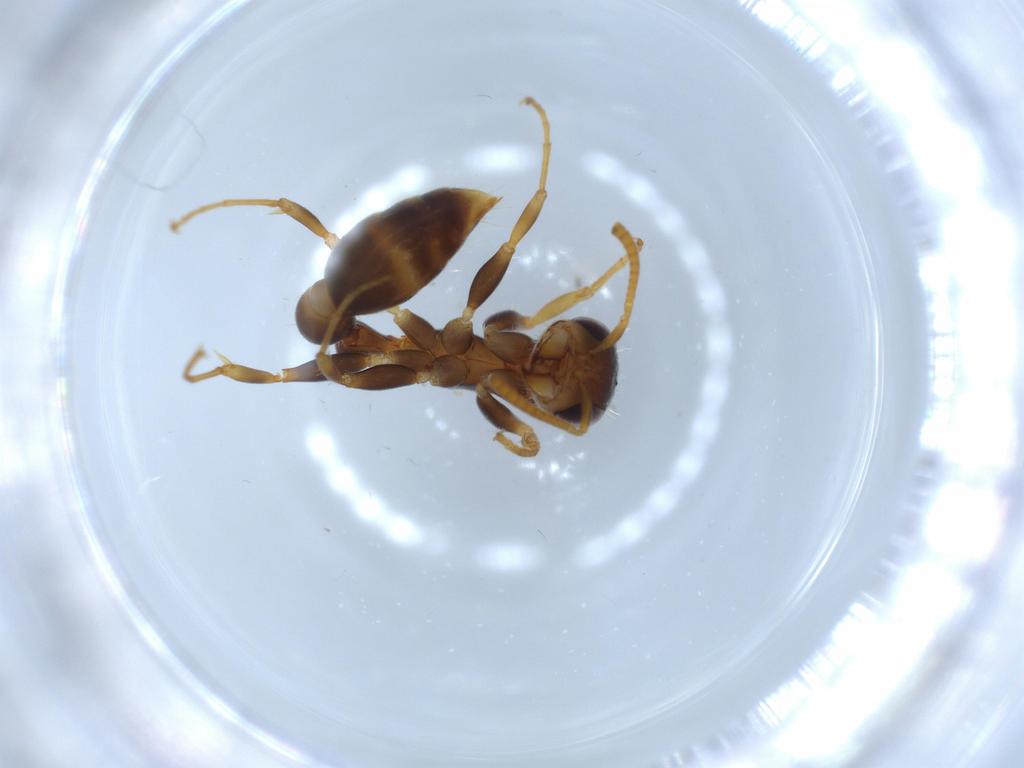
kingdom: Animalia
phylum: Arthropoda
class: Insecta
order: Hymenoptera
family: Formicidae
